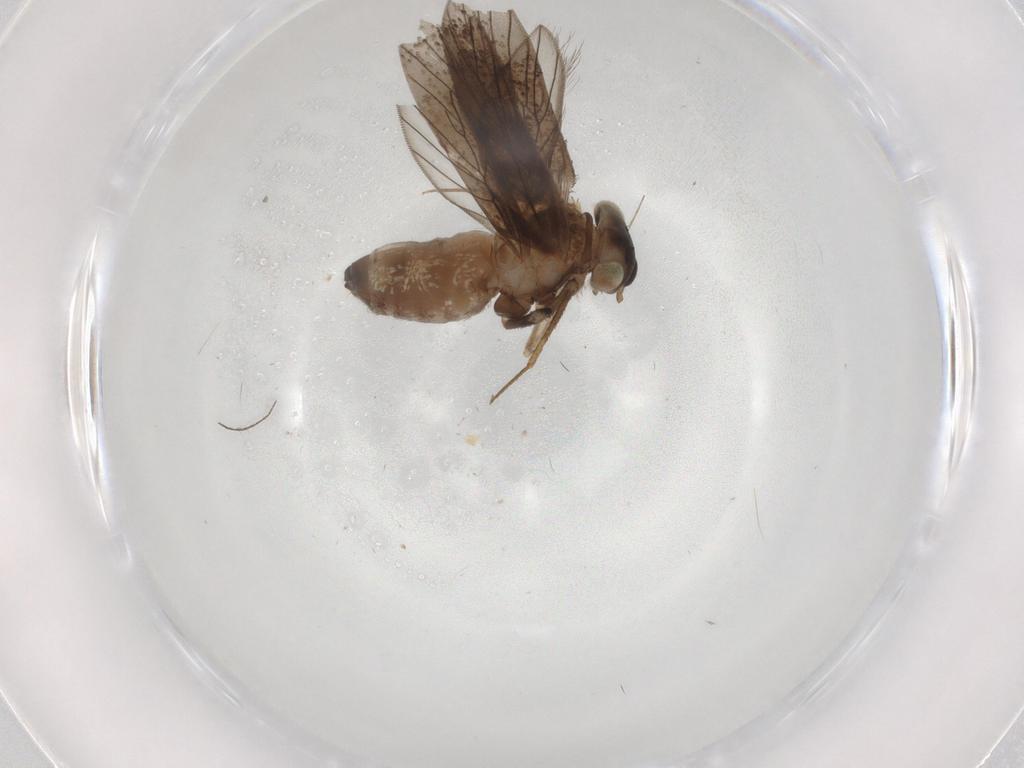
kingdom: Animalia
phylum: Arthropoda
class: Insecta
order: Psocodea
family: Lepidopsocidae
